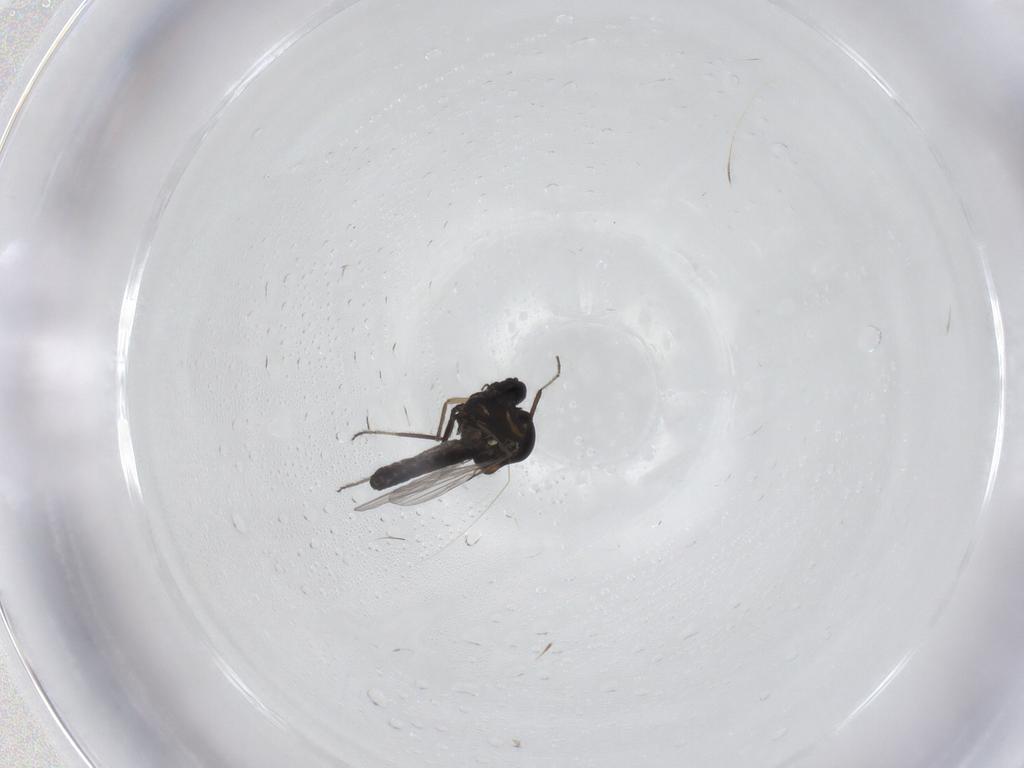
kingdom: Animalia
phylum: Arthropoda
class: Insecta
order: Diptera
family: Ceratopogonidae
